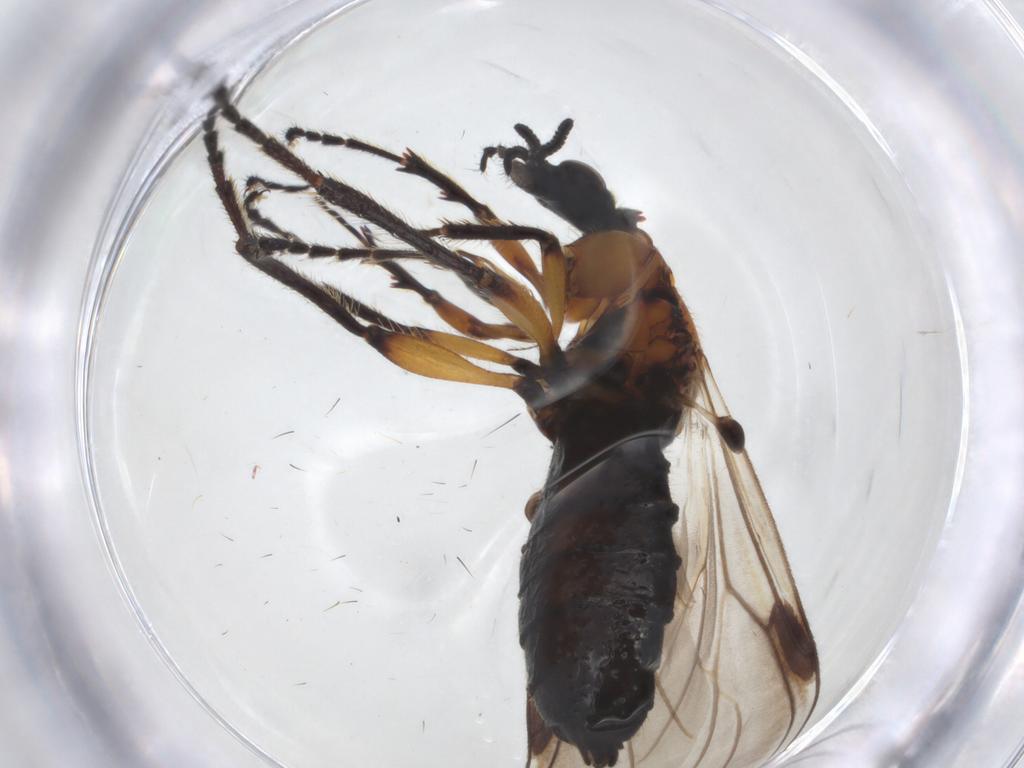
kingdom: Animalia
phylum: Arthropoda
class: Insecta
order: Diptera
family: Bibionidae
